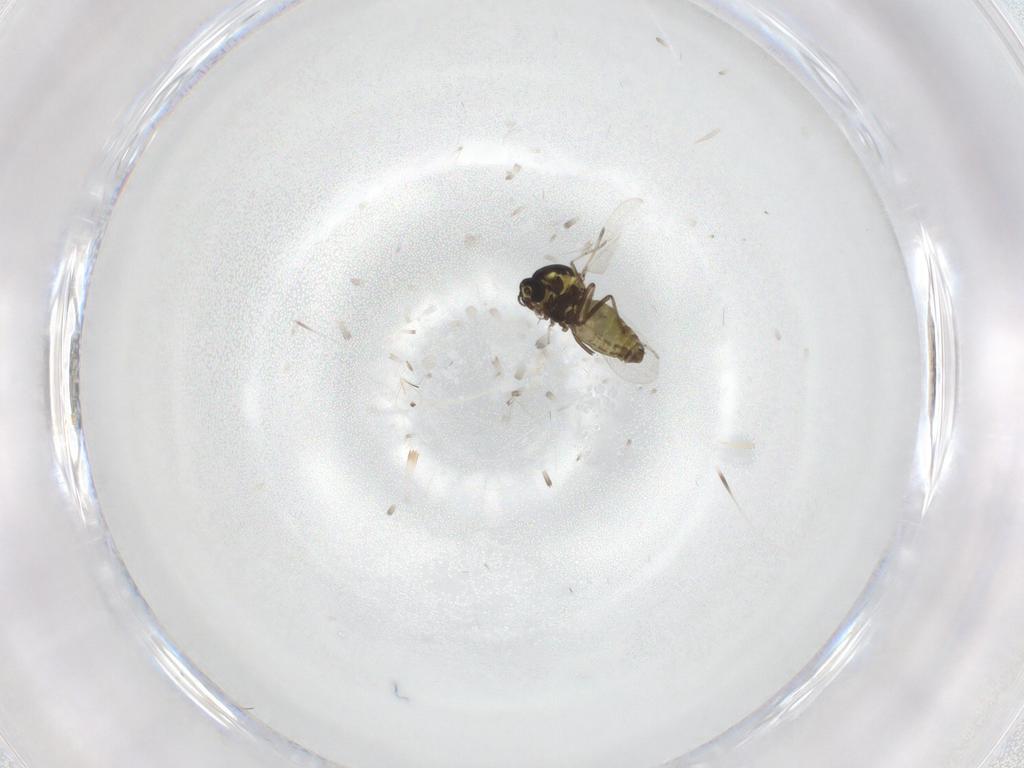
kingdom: Animalia
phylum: Arthropoda
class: Insecta
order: Diptera
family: Ceratopogonidae
